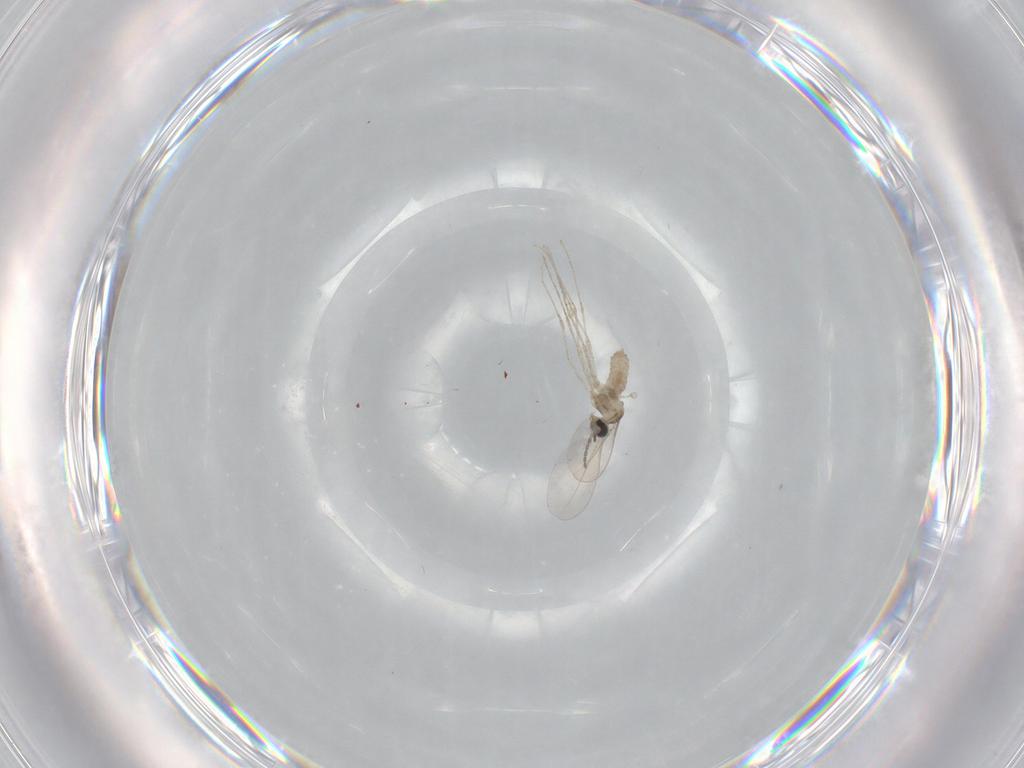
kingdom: Animalia
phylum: Arthropoda
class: Insecta
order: Diptera
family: Cecidomyiidae
